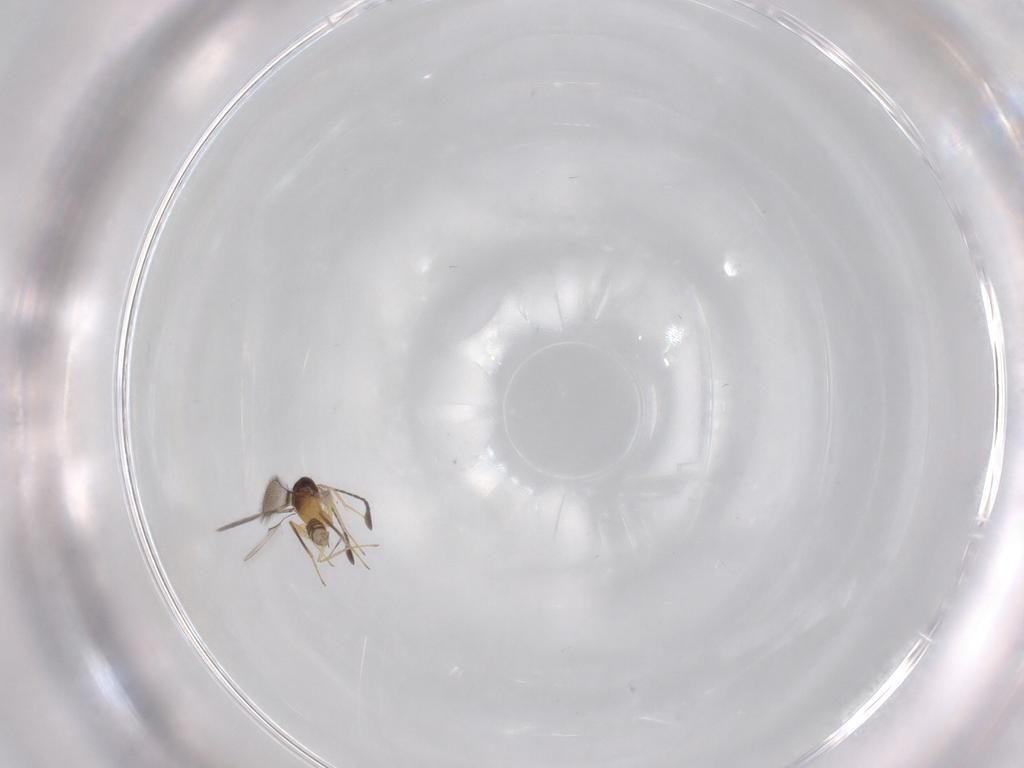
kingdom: Animalia
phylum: Arthropoda
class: Insecta
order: Hymenoptera
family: Mymaridae
